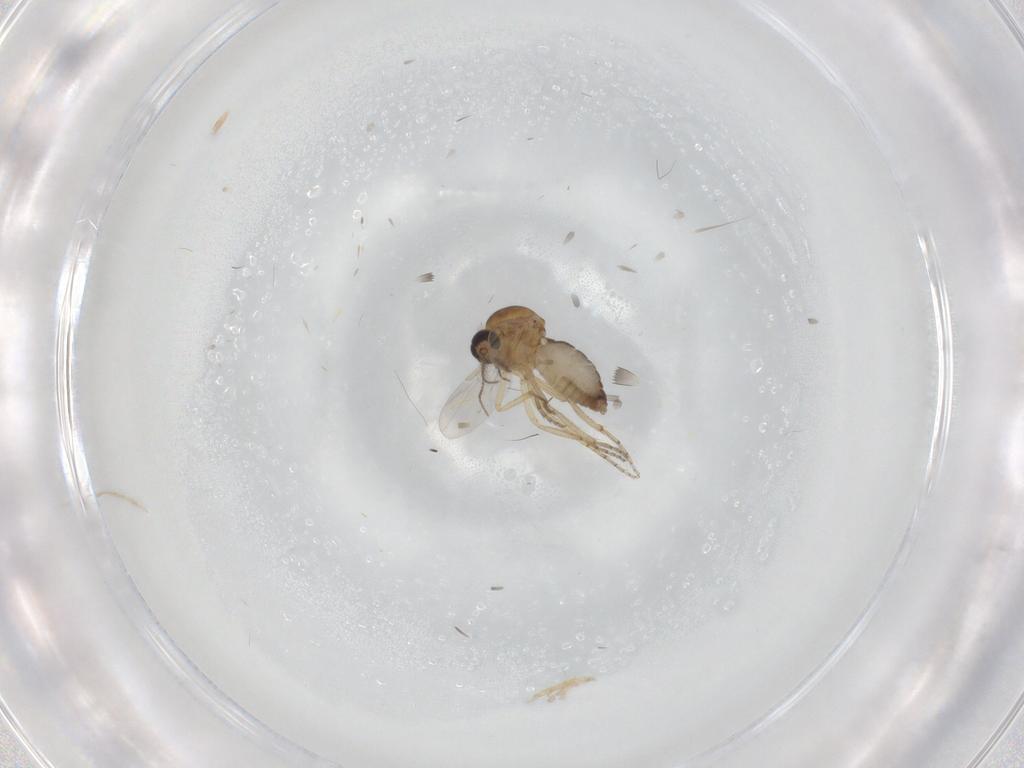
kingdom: Animalia
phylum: Arthropoda
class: Insecta
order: Diptera
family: Ceratopogonidae
